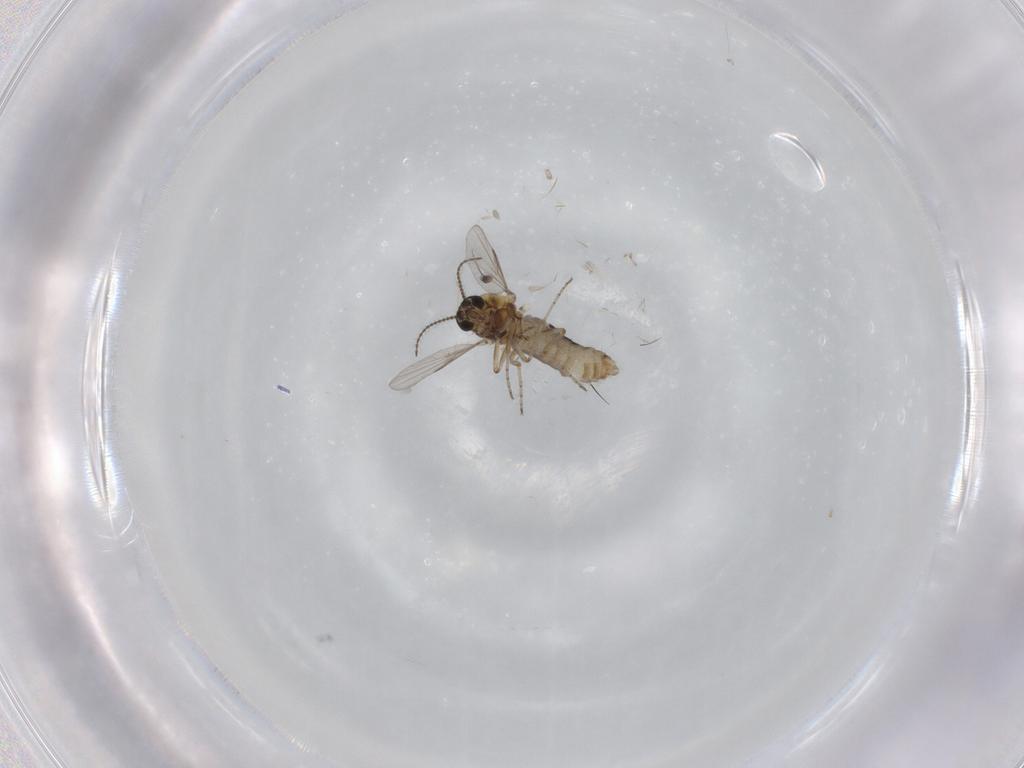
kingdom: Animalia
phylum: Arthropoda
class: Insecta
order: Diptera
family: Ceratopogonidae
